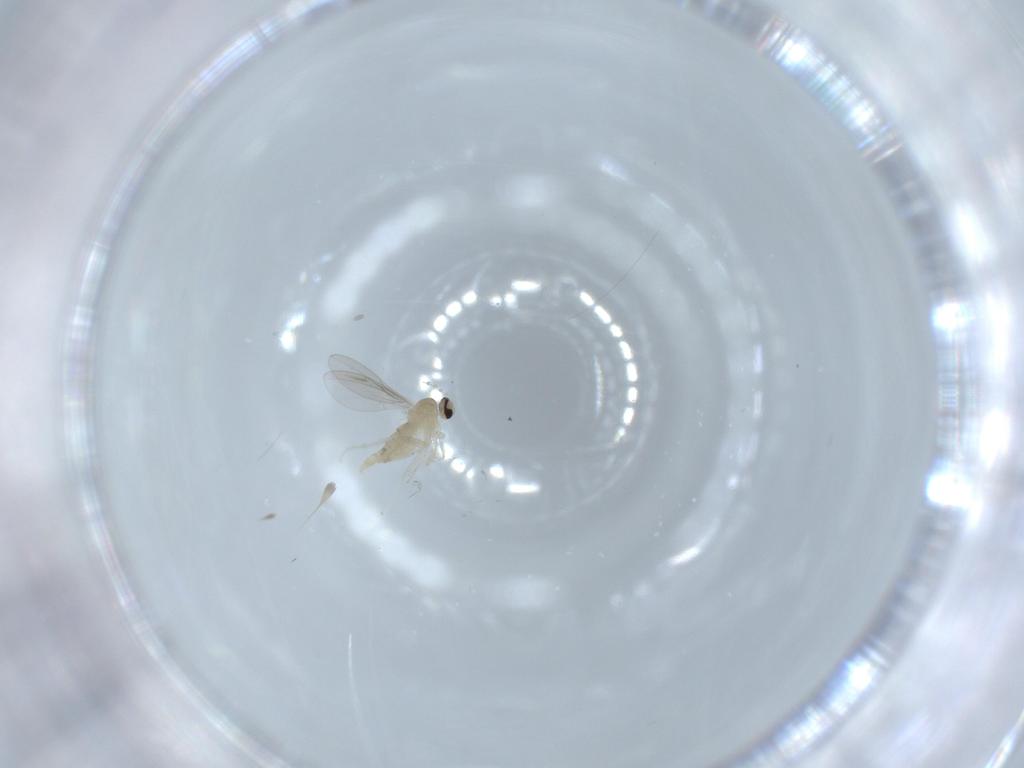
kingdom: Animalia
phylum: Arthropoda
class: Insecta
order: Diptera
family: Cecidomyiidae
